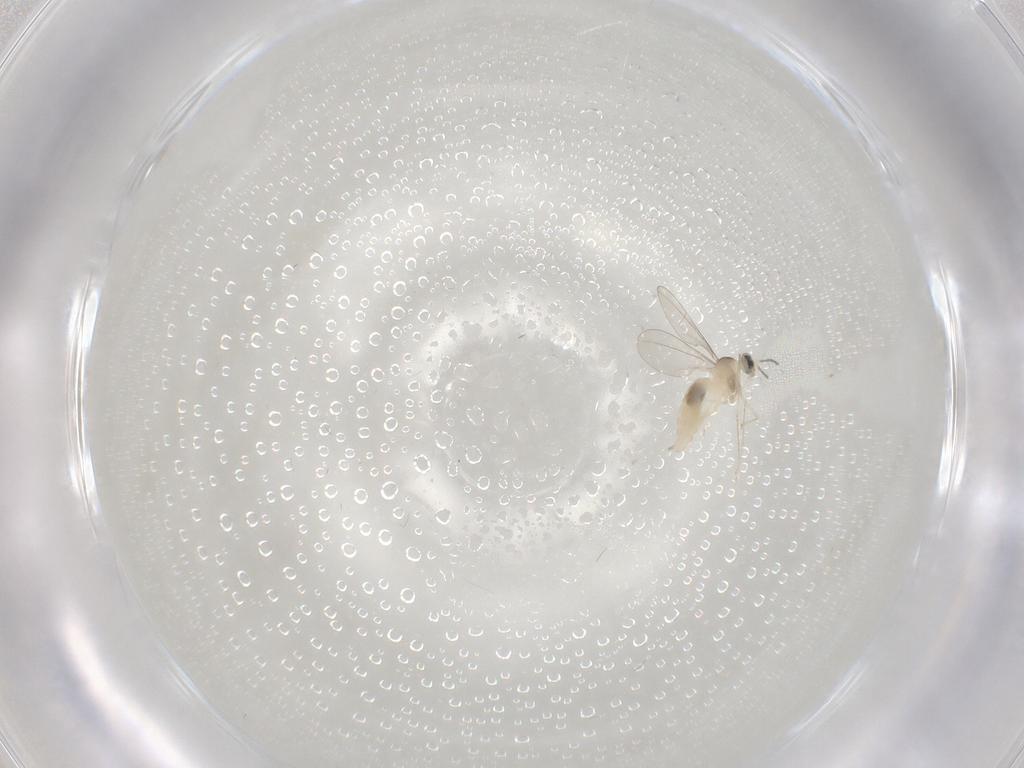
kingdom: Animalia
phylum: Arthropoda
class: Insecta
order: Diptera
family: Cecidomyiidae
